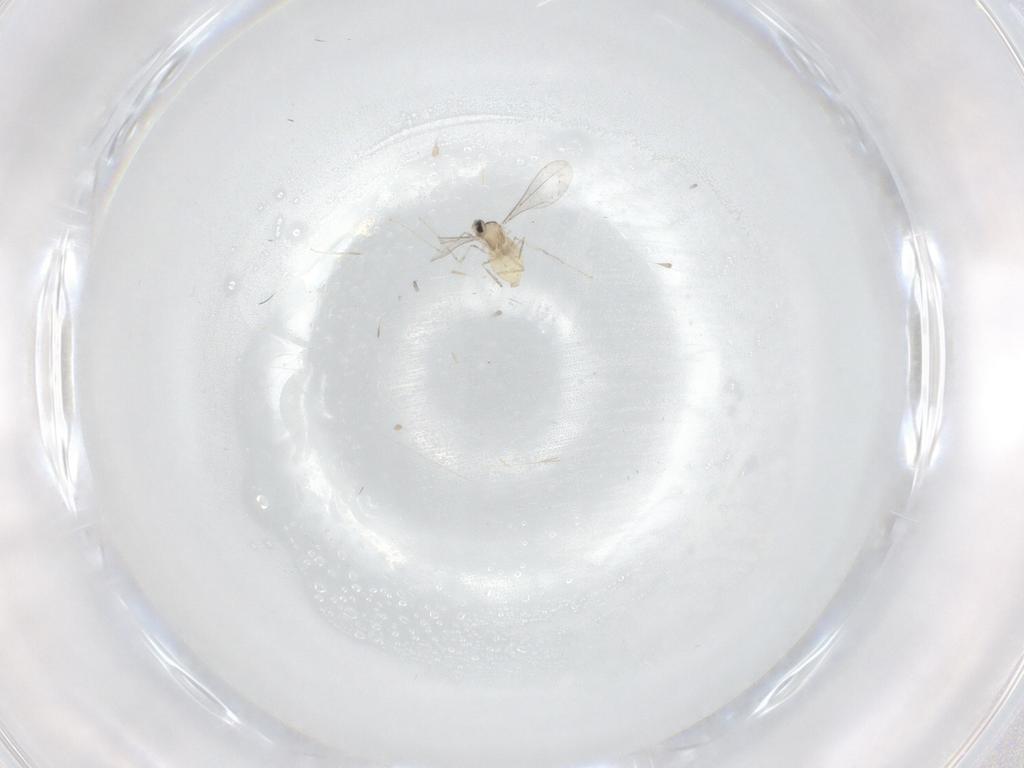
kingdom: Animalia
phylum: Arthropoda
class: Insecta
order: Diptera
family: Cecidomyiidae
